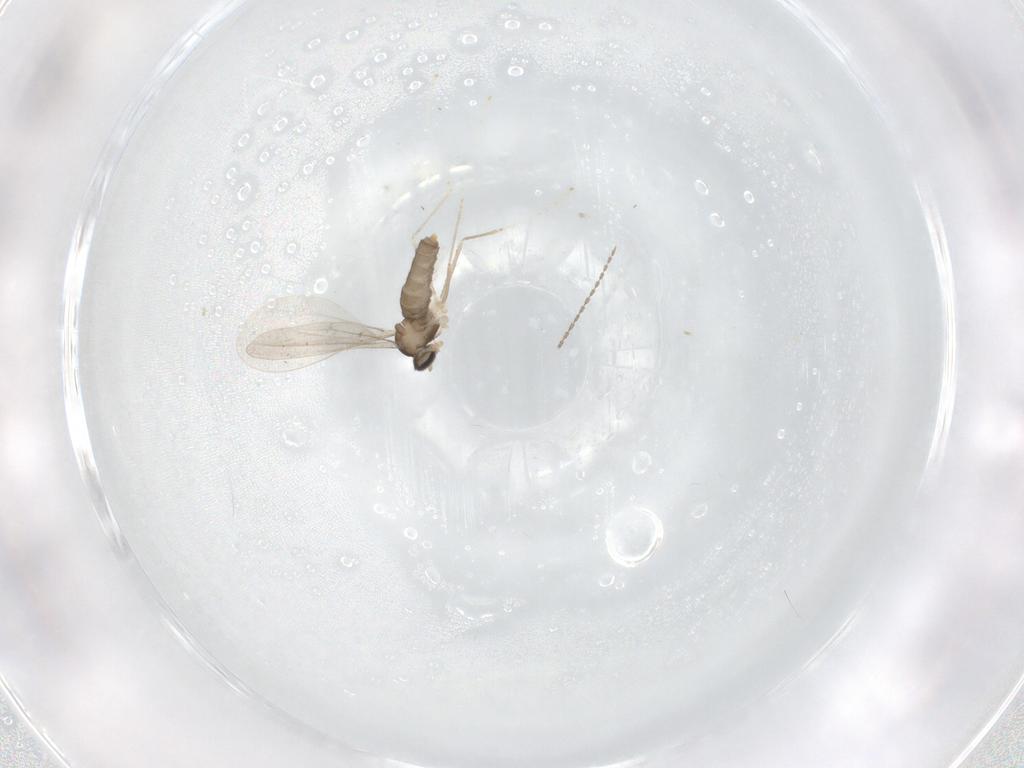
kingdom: Animalia
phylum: Arthropoda
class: Insecta
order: Diptera
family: Cecidomyiidae
